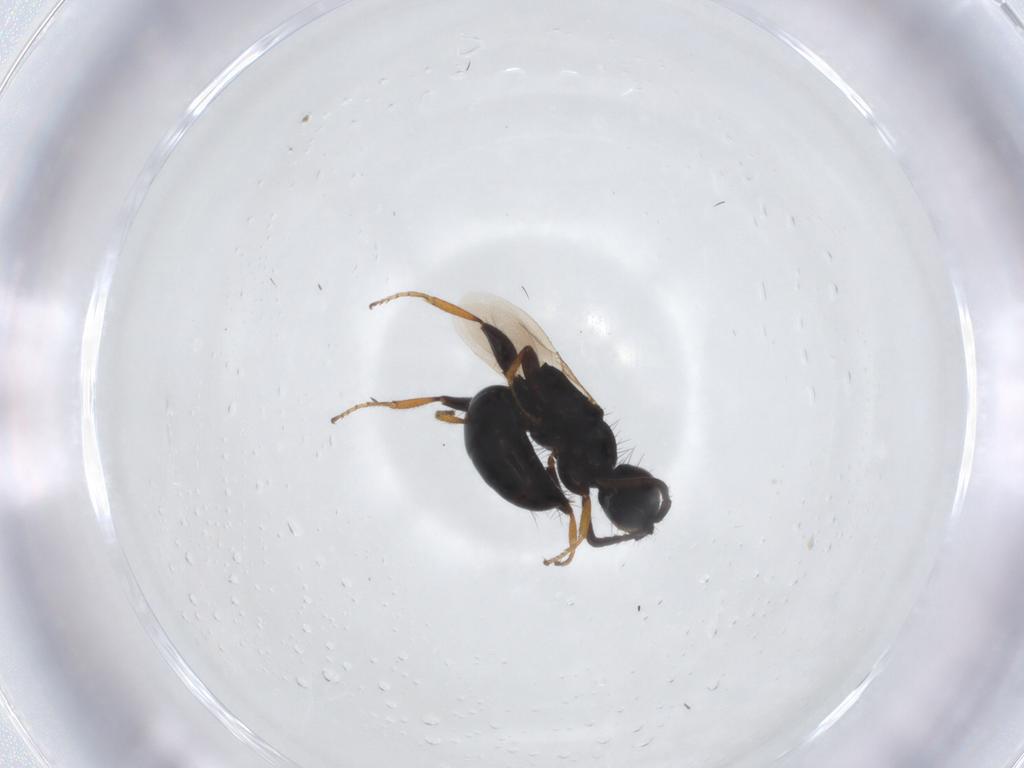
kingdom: Animalia
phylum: Arthropoda
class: Insecta
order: Hymenoptera
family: Bethylidae
